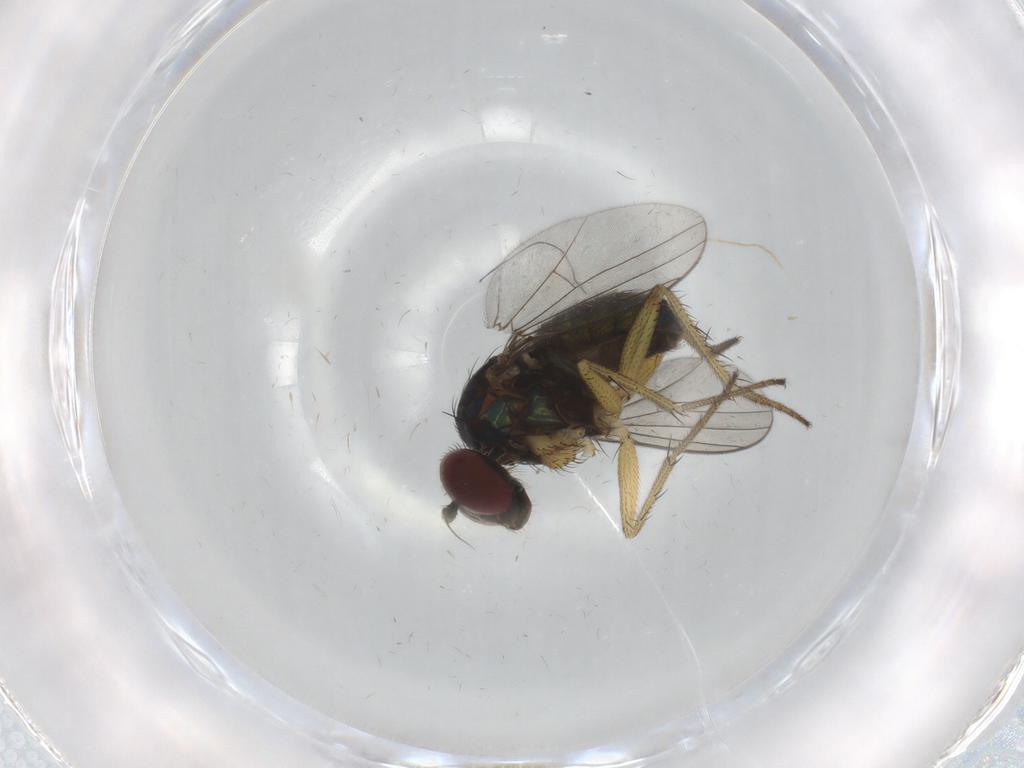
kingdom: Animalia
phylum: Arthropoda
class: Insecta
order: Diptera
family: Dolichopodidae
